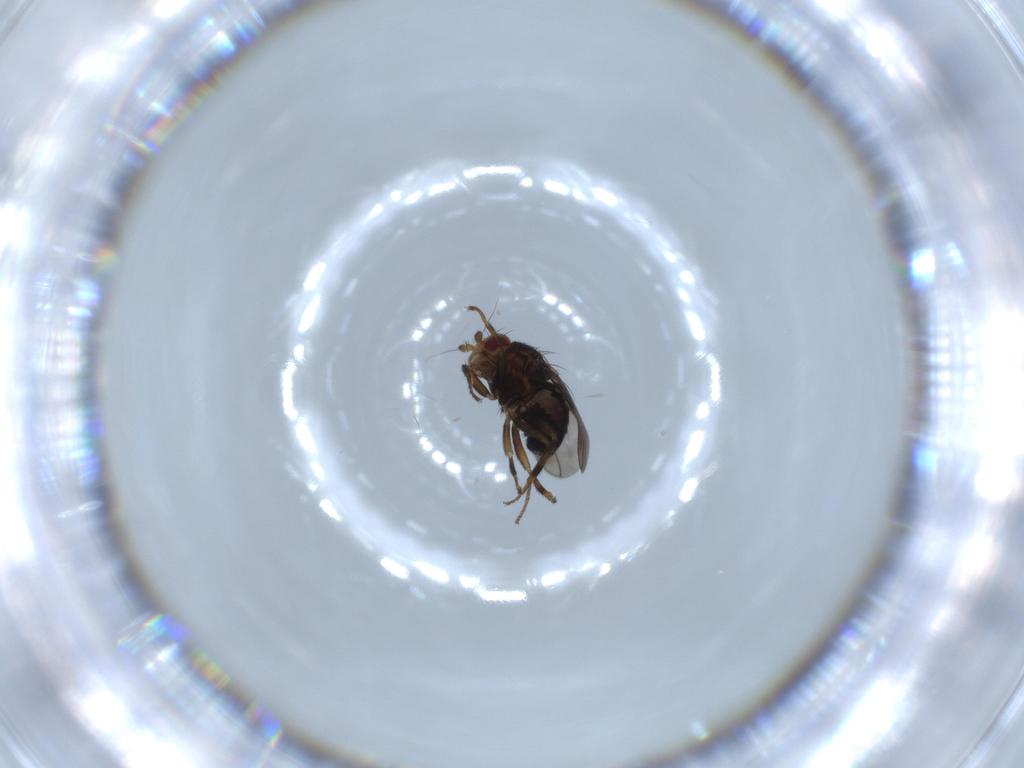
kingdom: Animalia
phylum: Arthropoda
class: Insecta
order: Diptera
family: Sciaridae
